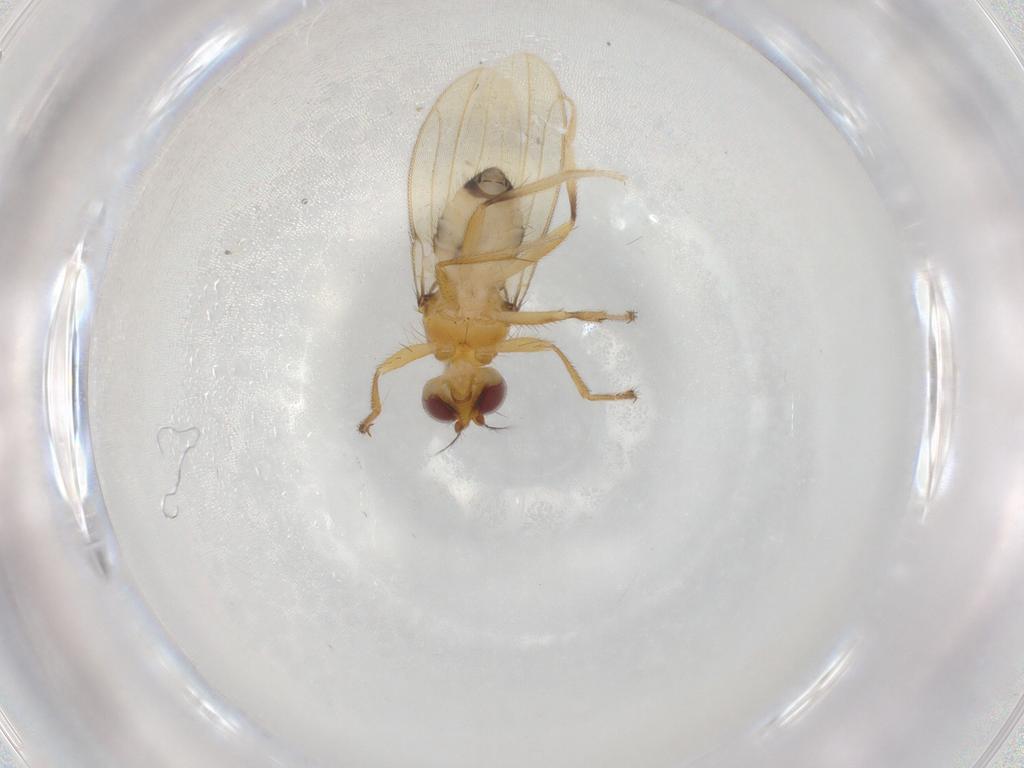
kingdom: Animalia
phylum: Arthropoda
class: Insecta
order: Diptera
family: Periscelididae
